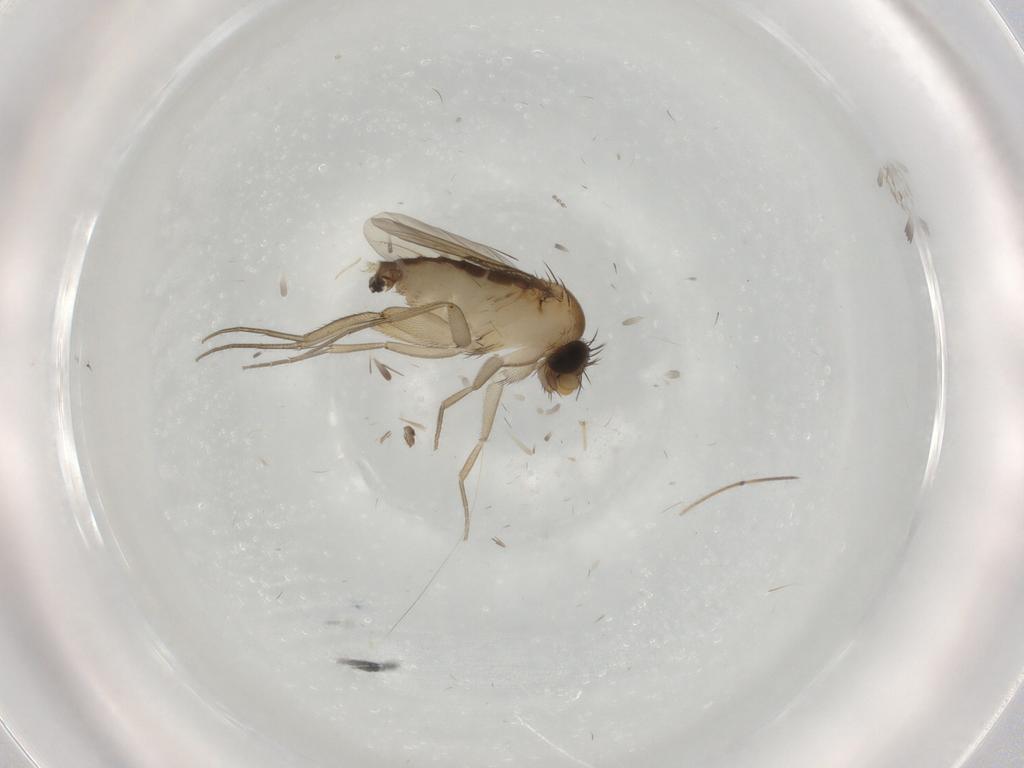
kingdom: Animalia
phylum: Arthropoda
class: Insecta
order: Diptera
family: Phoridae
